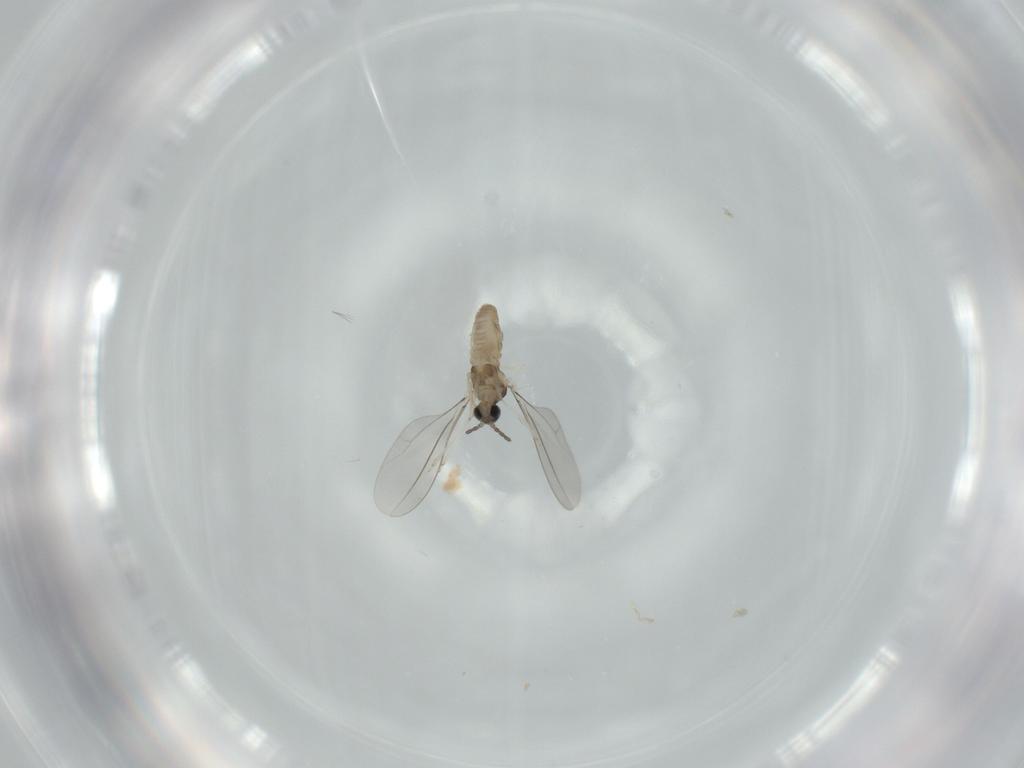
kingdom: Animalia
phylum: Arthropoda
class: Insecta
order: Diptera
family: Cecidomyiidae
